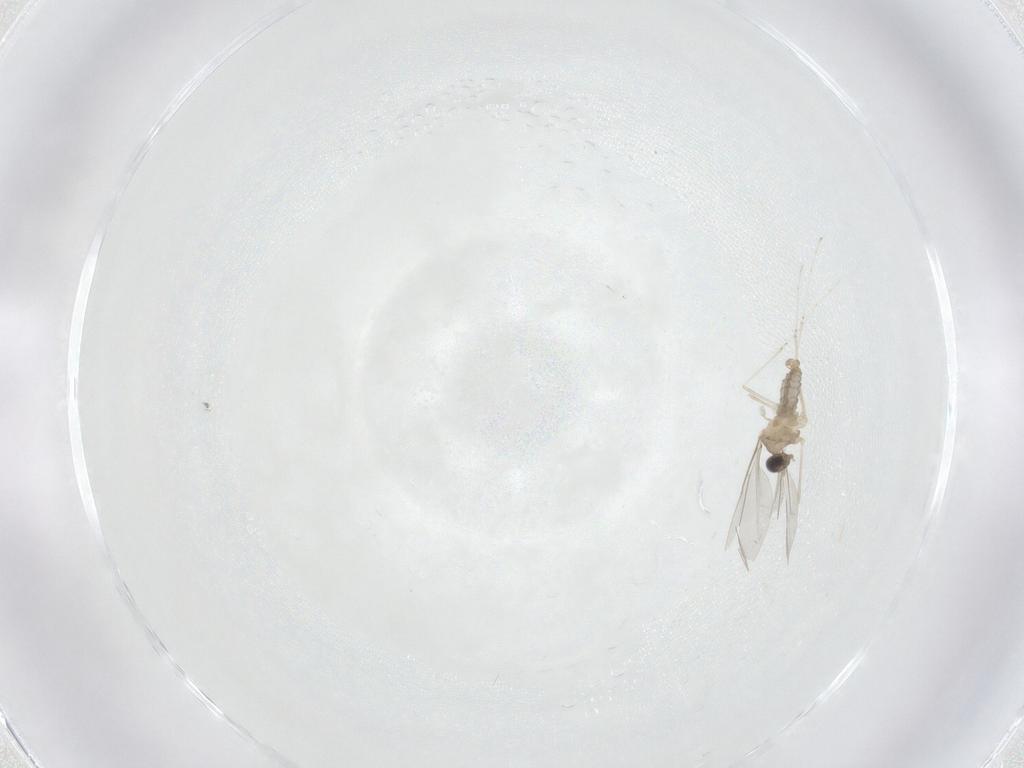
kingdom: Animalia
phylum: Arthropoda
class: Insecta
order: Diptera
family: Cecidomyiidae
